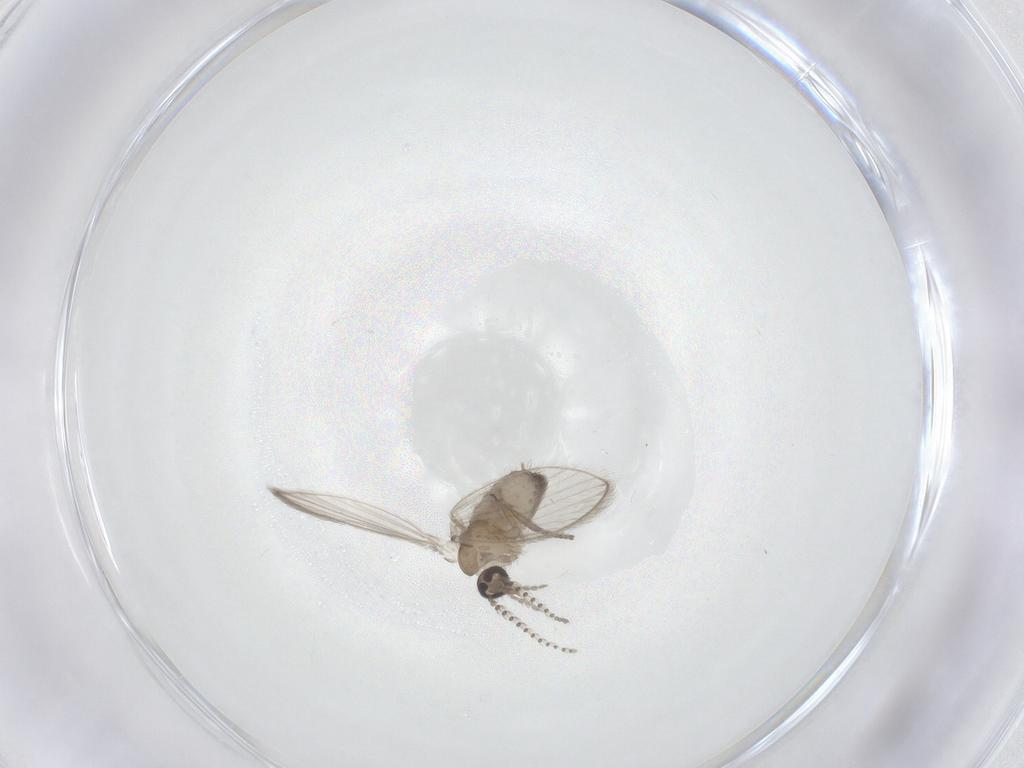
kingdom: Animalia
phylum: Arthropoda
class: Insecta
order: Diptera
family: Psychodidae
